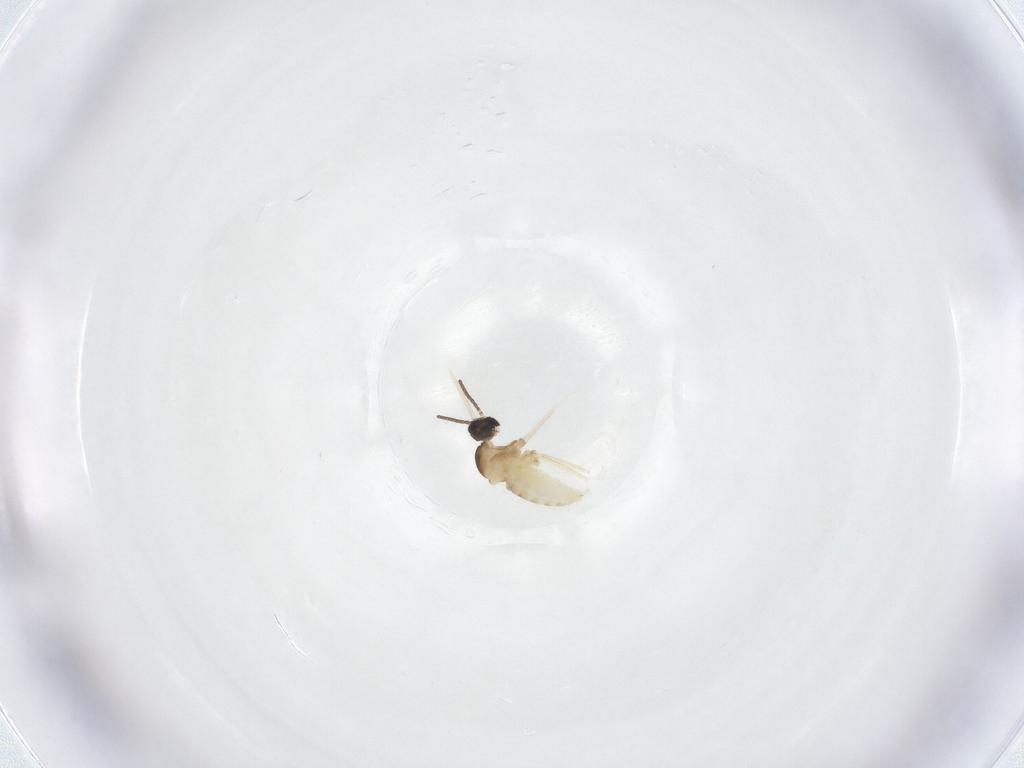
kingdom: Animalia
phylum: Arthropoda
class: Insecta
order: Diptera
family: Cecidomyiidae
